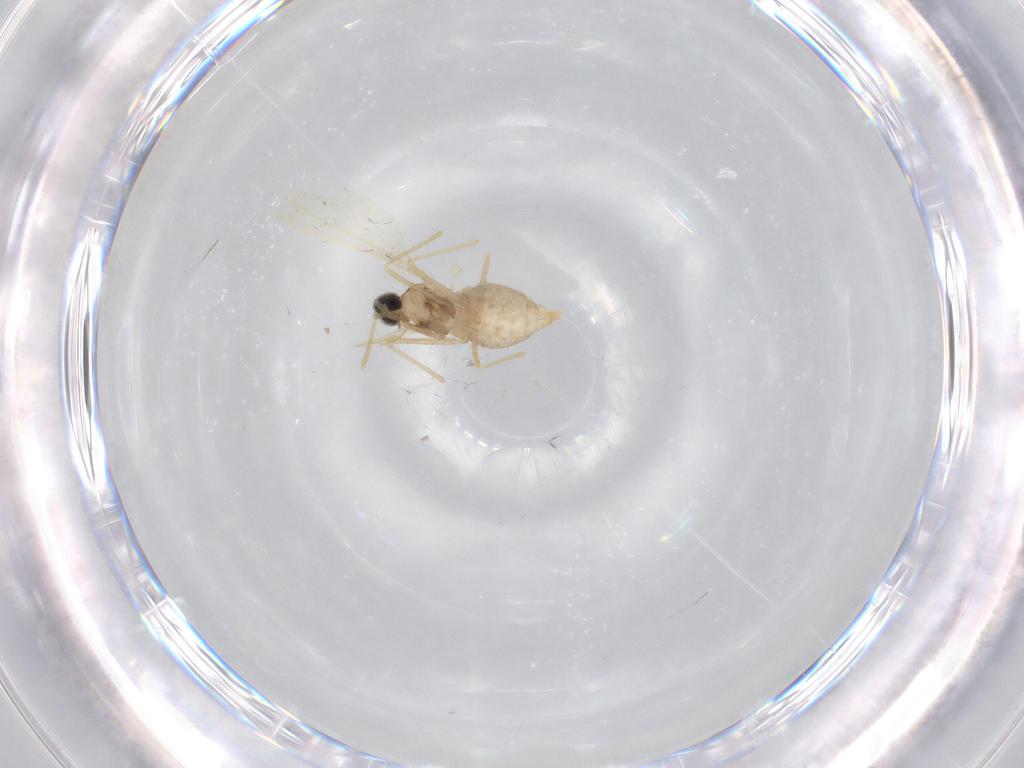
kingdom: Animalia
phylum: Arthropoda
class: Insecta
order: Diptera
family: Cecidomyiidae
